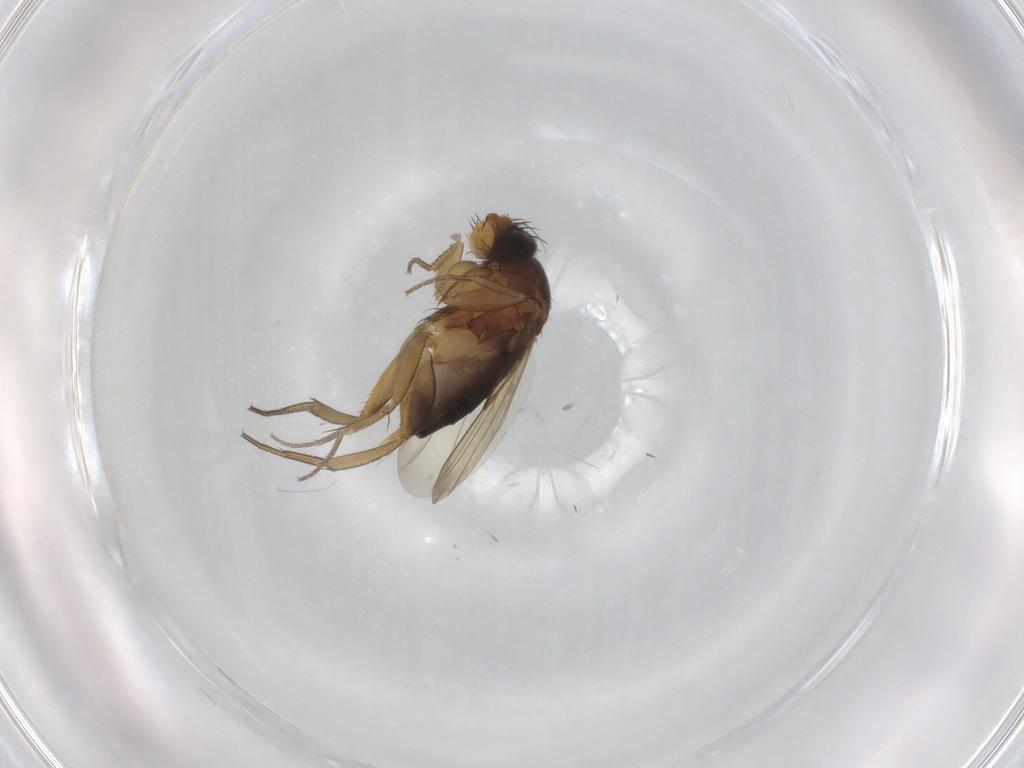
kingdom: Animalia
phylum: Arthropoda
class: Insecta
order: Diptera
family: Phoridae
